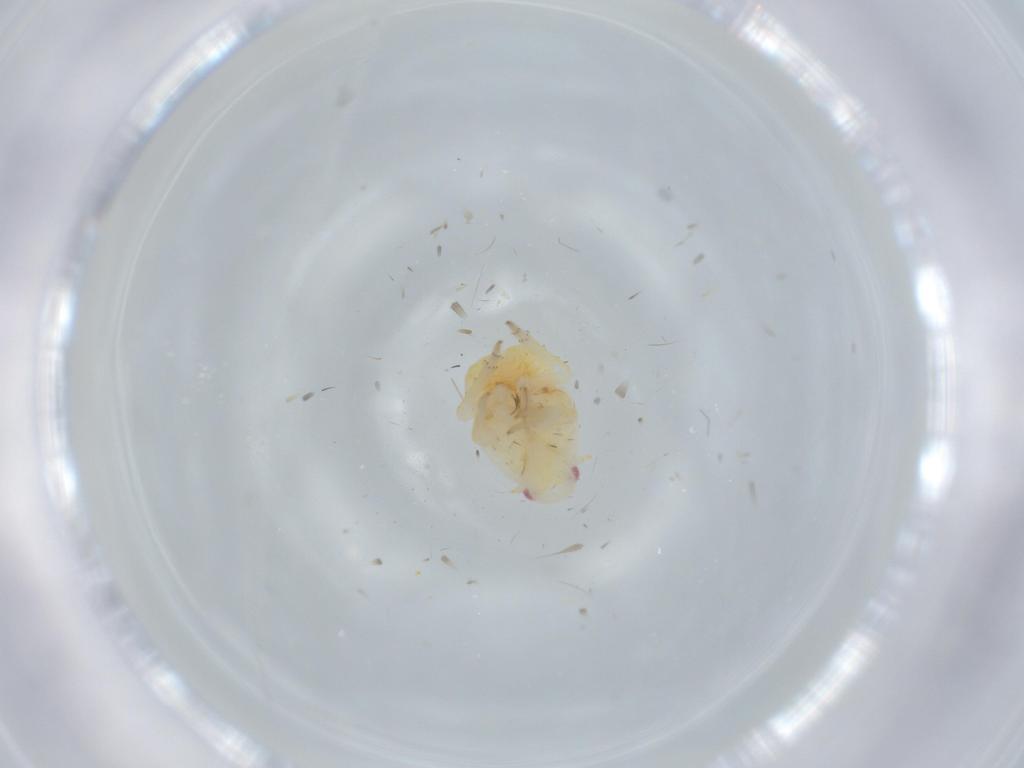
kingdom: Animalia
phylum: Arthropoda
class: Insecta
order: Hemiptera
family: Flatidae
